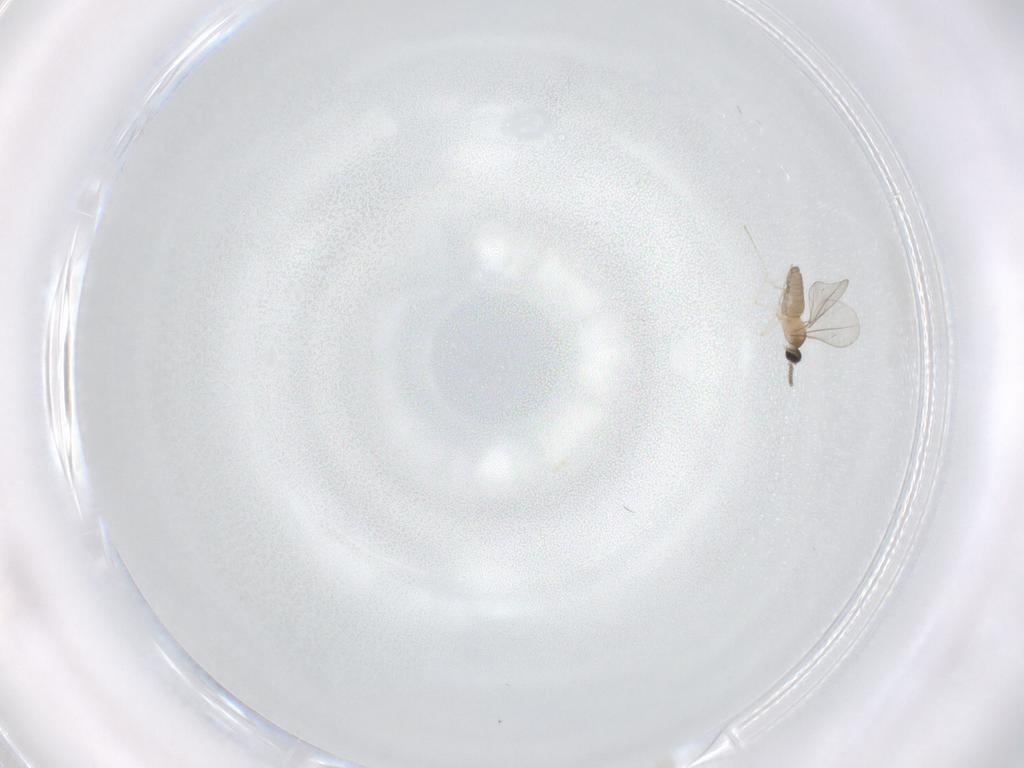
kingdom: Animalia
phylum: Arthropoda
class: Insecta
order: Diptera
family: Cecidomyiidae
